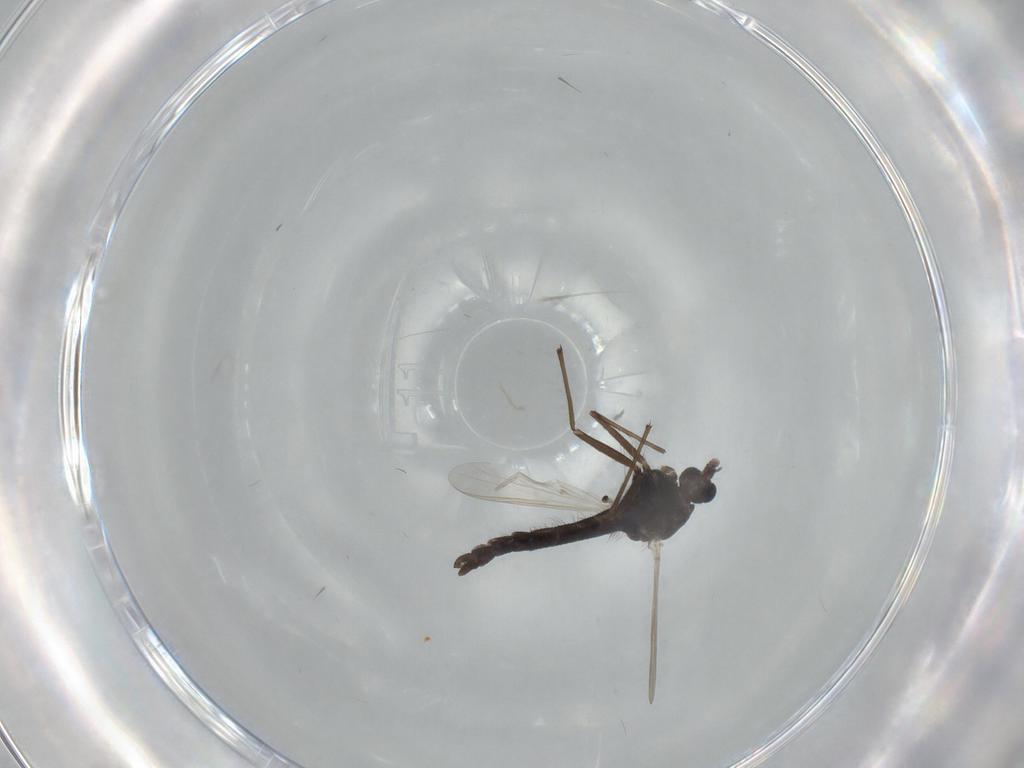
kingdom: Animalia
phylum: Arthropoda
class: Insecta
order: Diptera
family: Chironomidae
